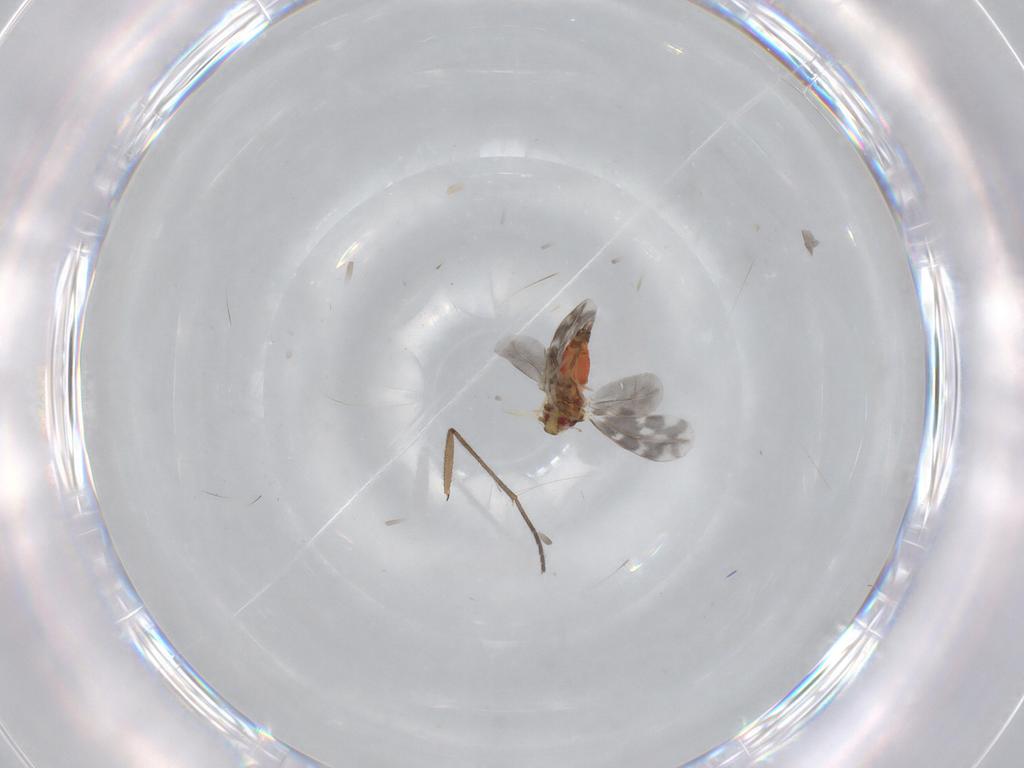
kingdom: Animalia
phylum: Arthropoda
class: Insecta
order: Hemiptera
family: Aleyrodidae
